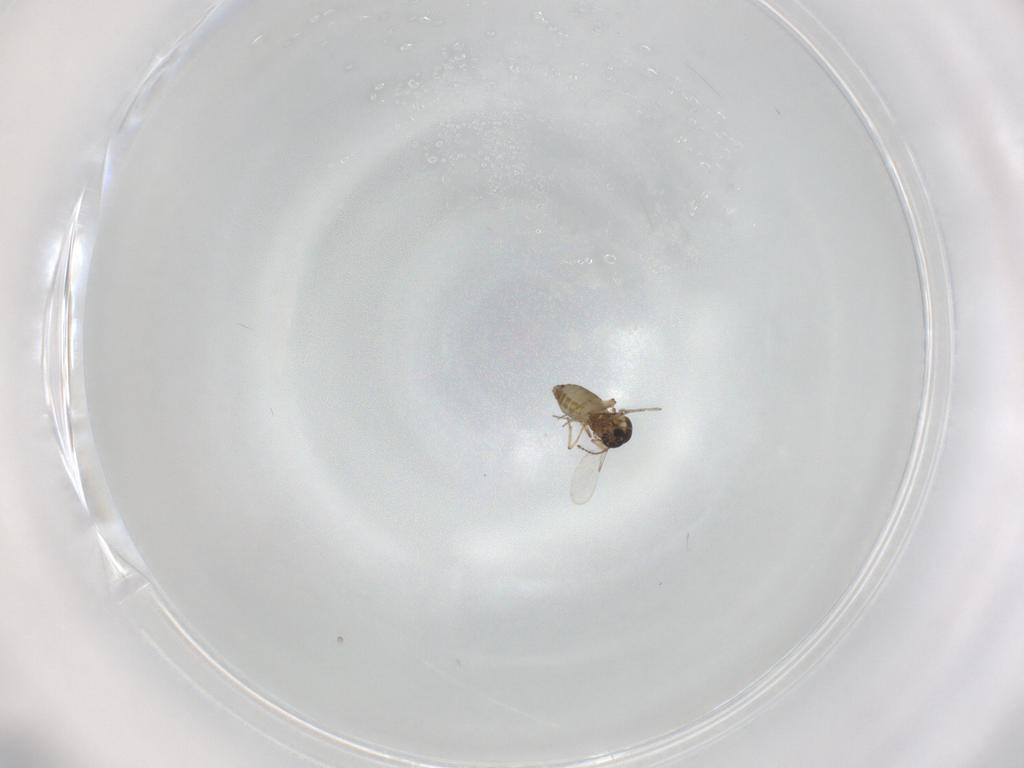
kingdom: Animalia
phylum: Arthropoda
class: Insecta
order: Diptera
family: Ceratopogonidae
